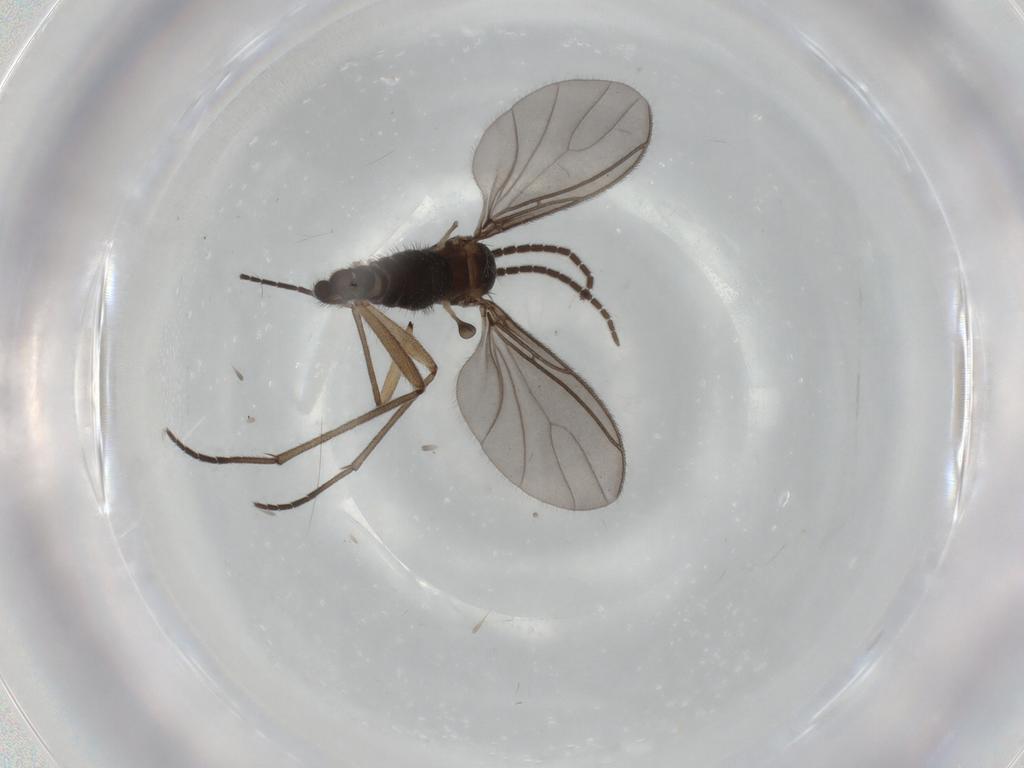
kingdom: Animalia
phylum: Arthropoda
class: Insecta
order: Diptera
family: Sciaridae
